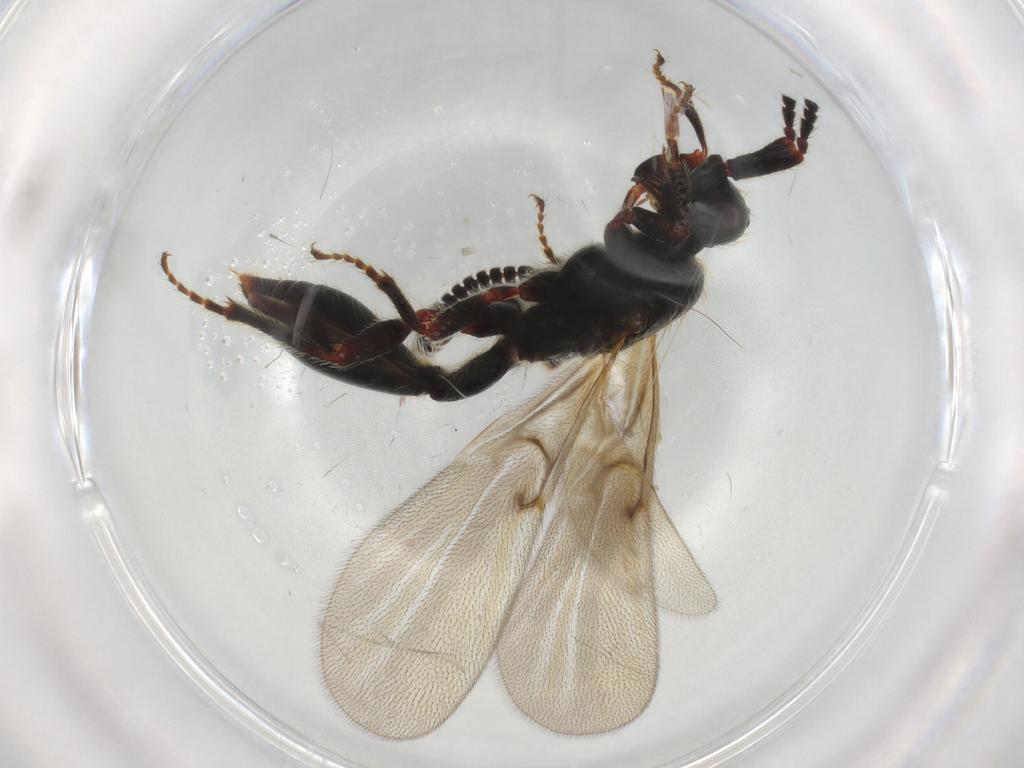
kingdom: Animalia
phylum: Arthropoda
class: Insecta
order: Hymenoptera
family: Diapriidae
